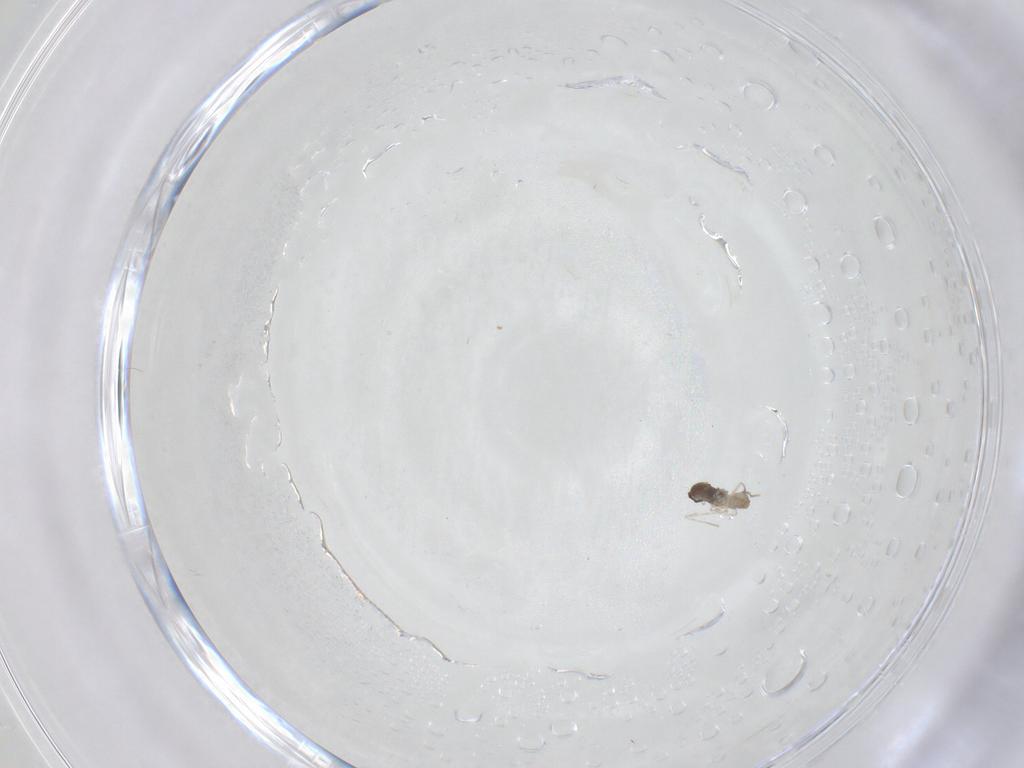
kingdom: Animalia
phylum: Arthropoda
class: Insecta
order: Diptera
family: Cecidomyiidae
